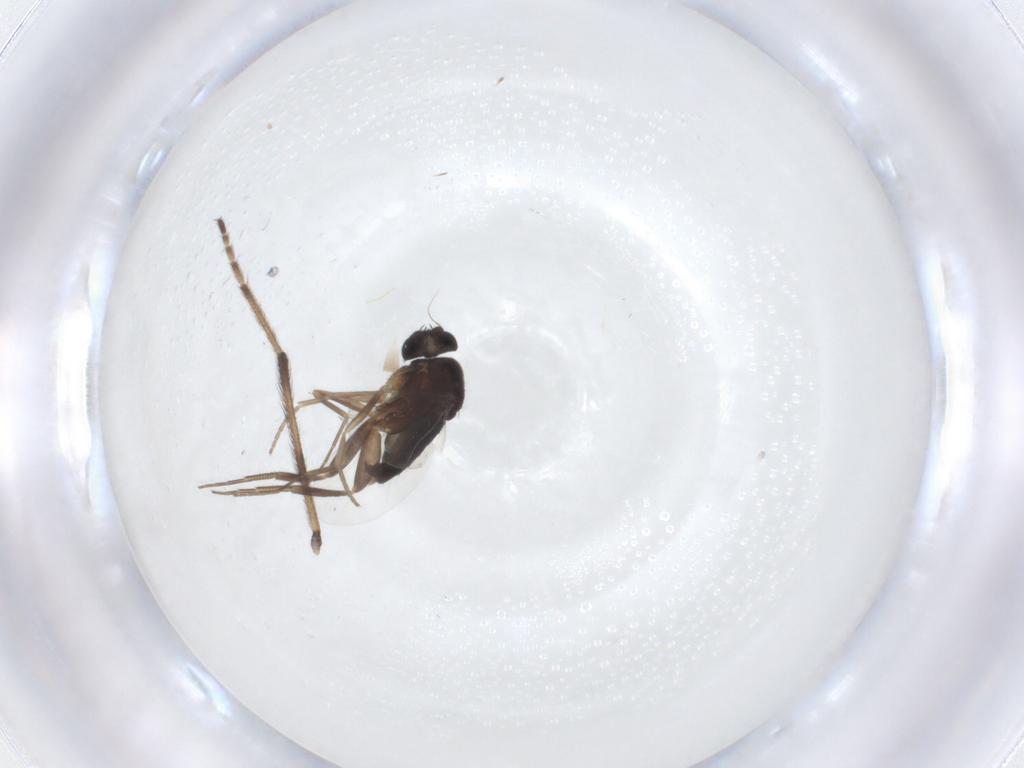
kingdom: Animalia
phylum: Arthropoda
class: Insecta
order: Diptera
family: Phoridae
